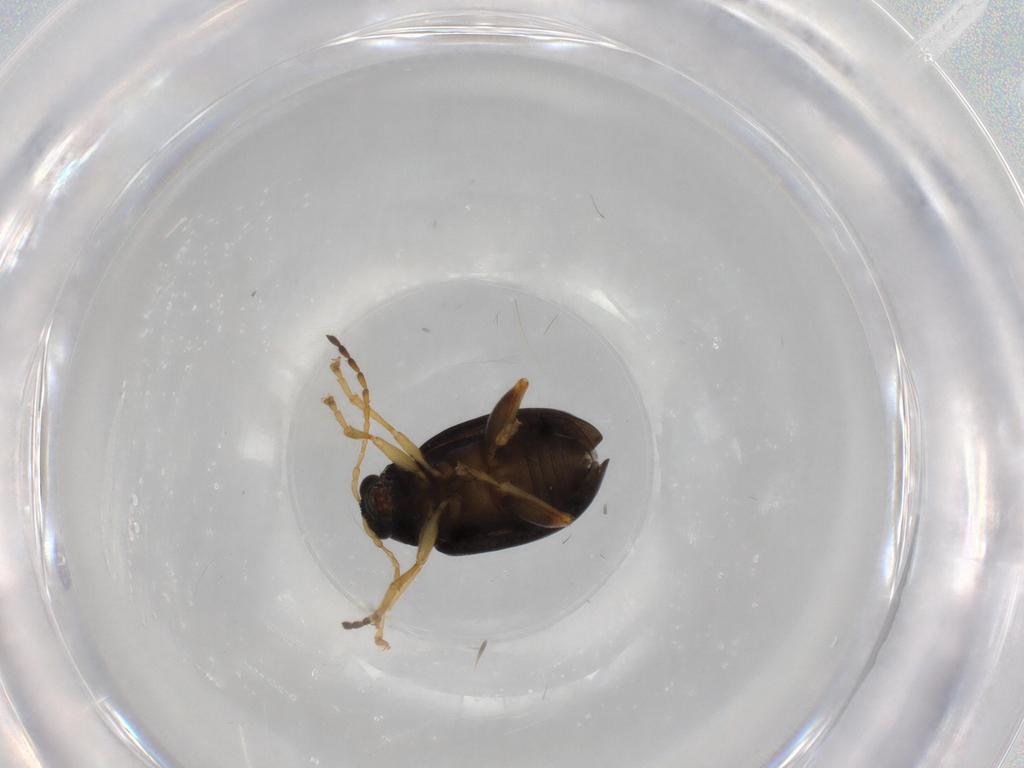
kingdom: Animalia
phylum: Arthropoda
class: Insecta
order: Coleoptera
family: Chrysomelidae
